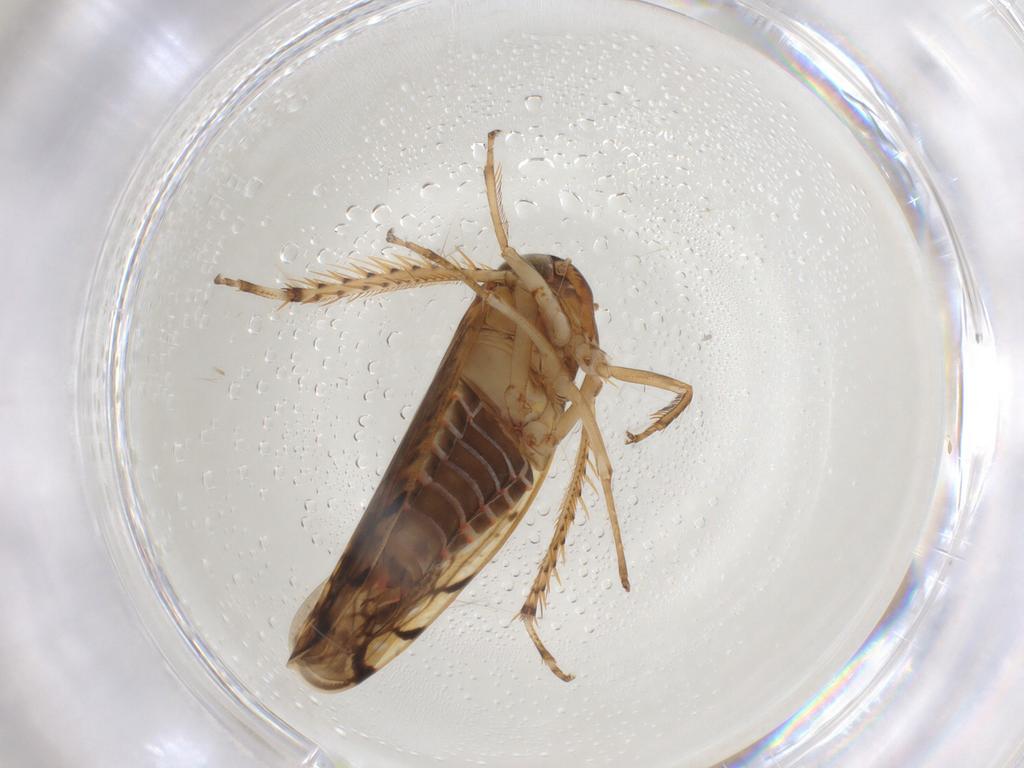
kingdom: Animalia
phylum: Arthropoda
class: Insecta
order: Hemiptera
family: Cicadellidae
